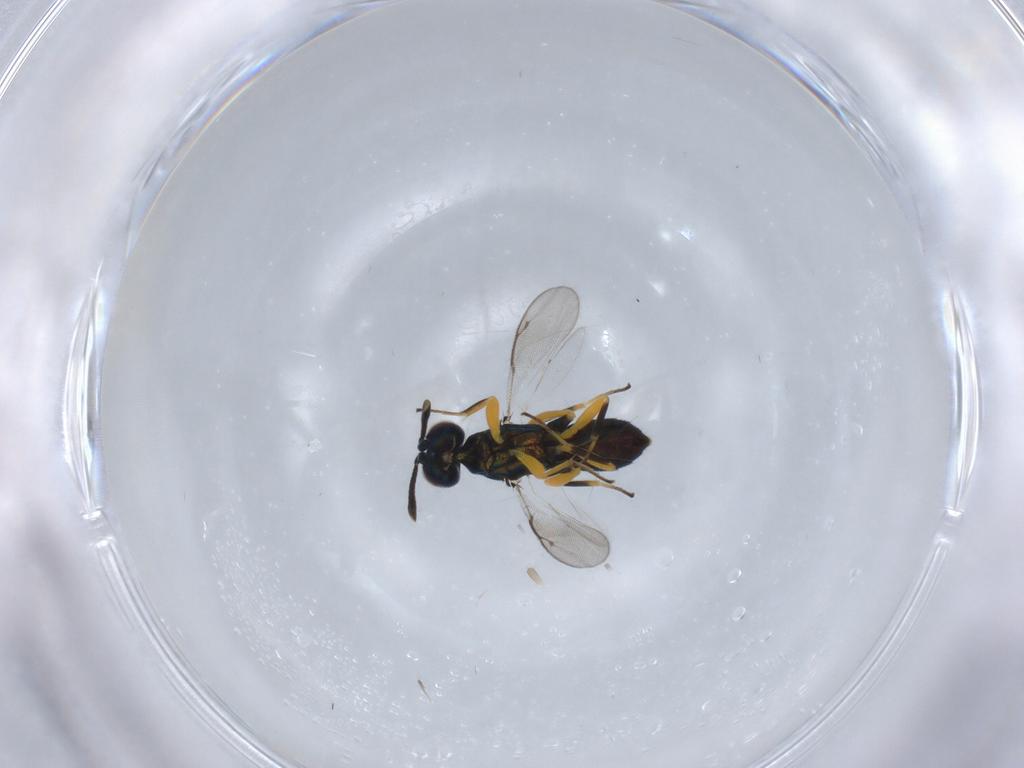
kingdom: Animalia
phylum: Arthropoda
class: Insecta
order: Hymenoptera
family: Eupelmidae
